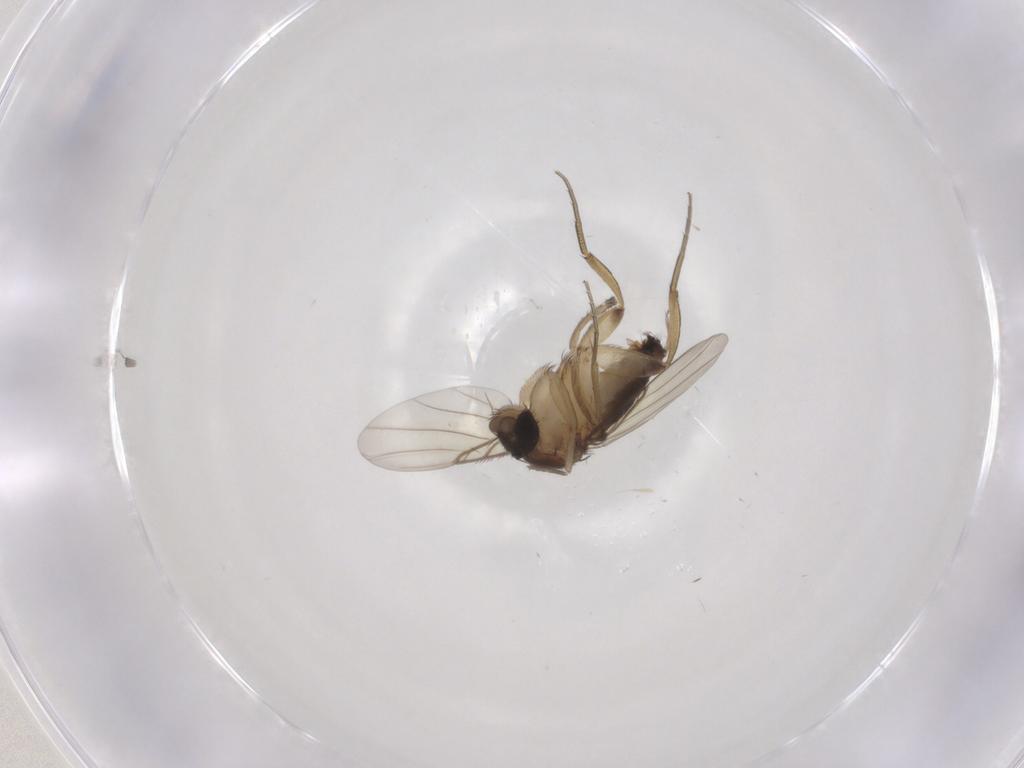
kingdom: Animalia
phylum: Arthropoda
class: Insecta
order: Diptera
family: Phoridae
